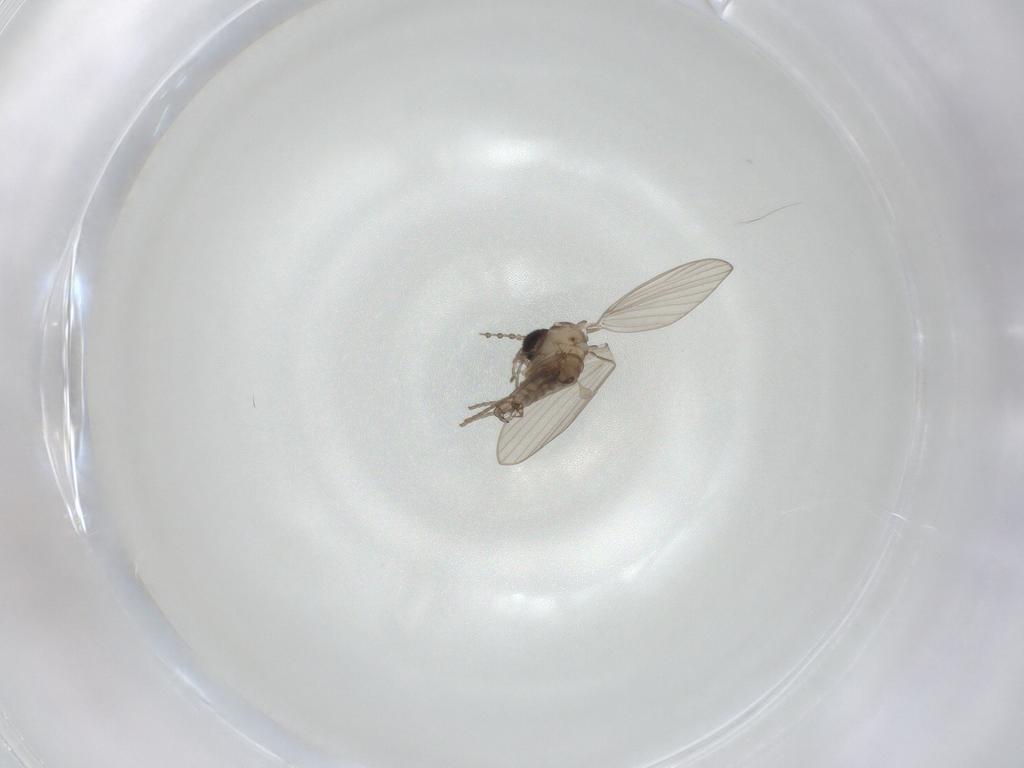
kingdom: Animalia
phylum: Arthropoda
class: Insecta
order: Diptera
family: Psychodidae
